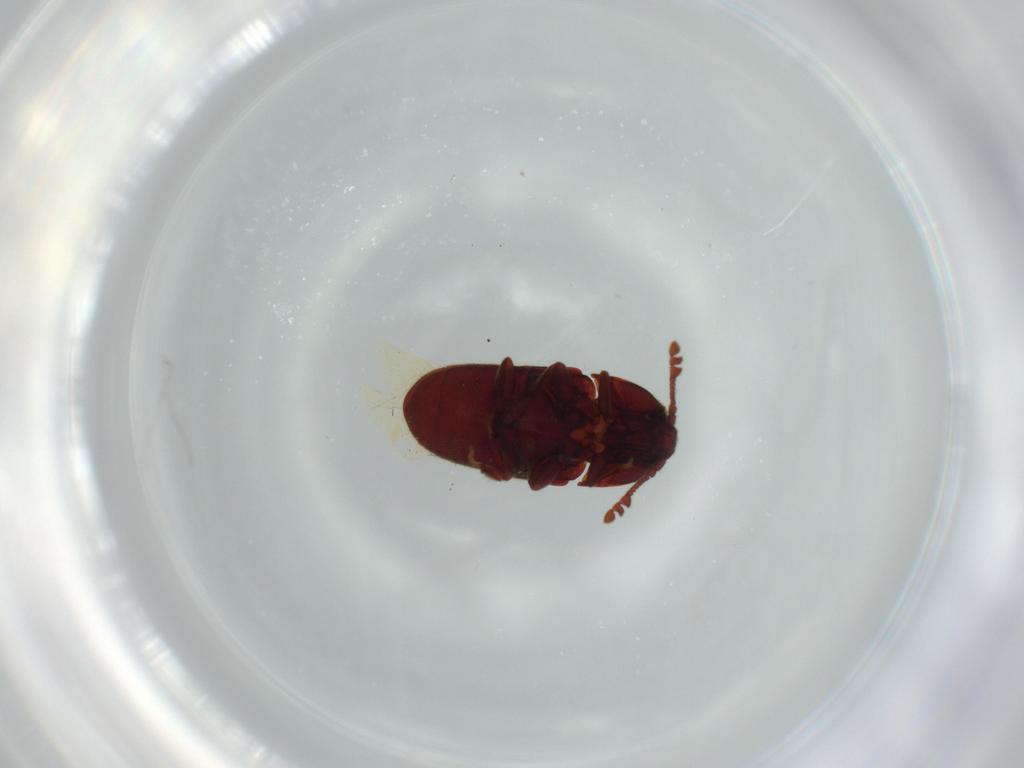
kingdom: Animalia
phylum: Arthropoda
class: Insecta
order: Coleoptera
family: Throscidae
